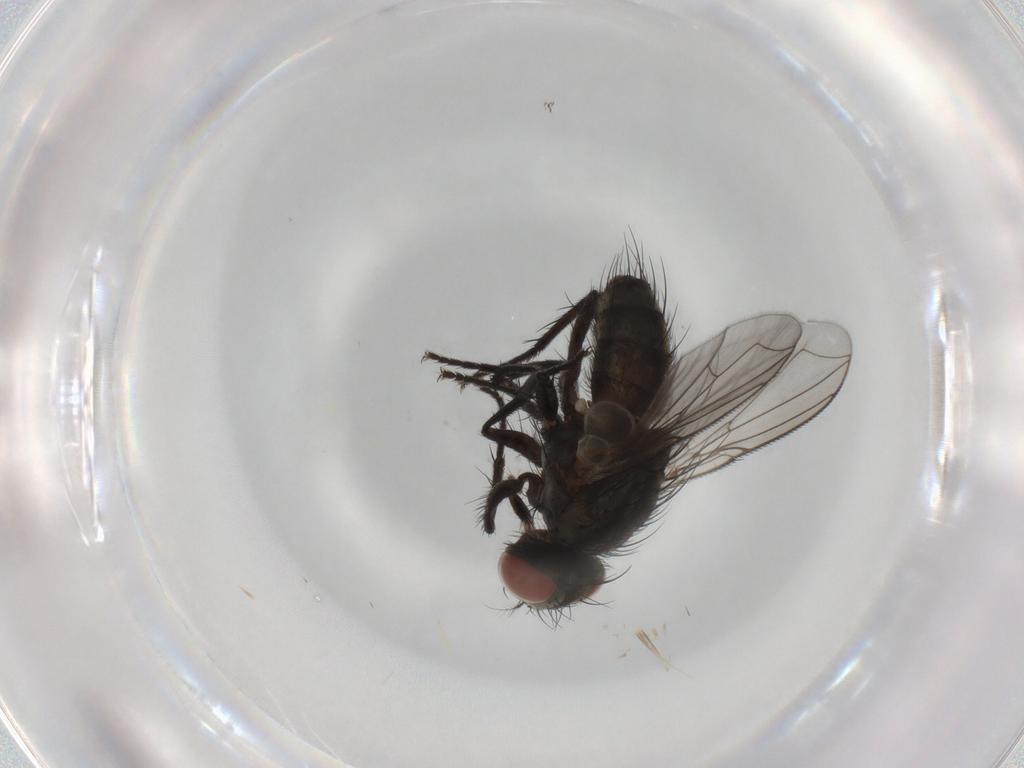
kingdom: Animalia
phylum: Arthropoda
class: Insecta
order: Diptera
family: Sarcophagidae
